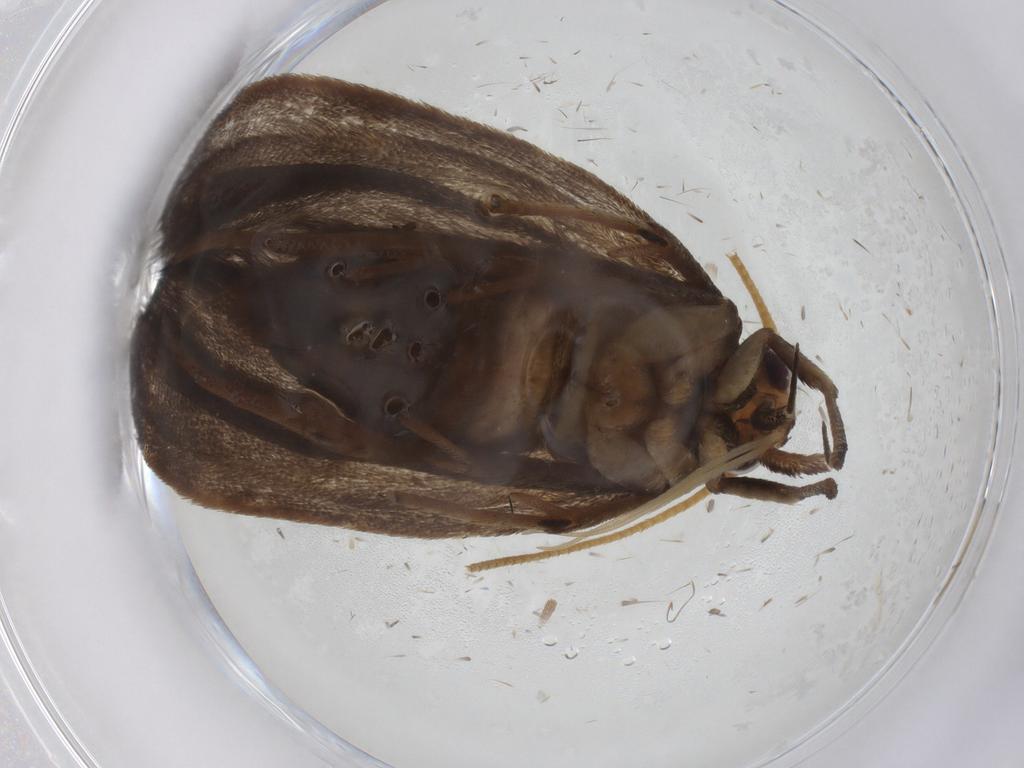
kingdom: Animalia
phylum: Arthropoda
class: Insecta
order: Lepidoptera
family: Lecithoceridae
